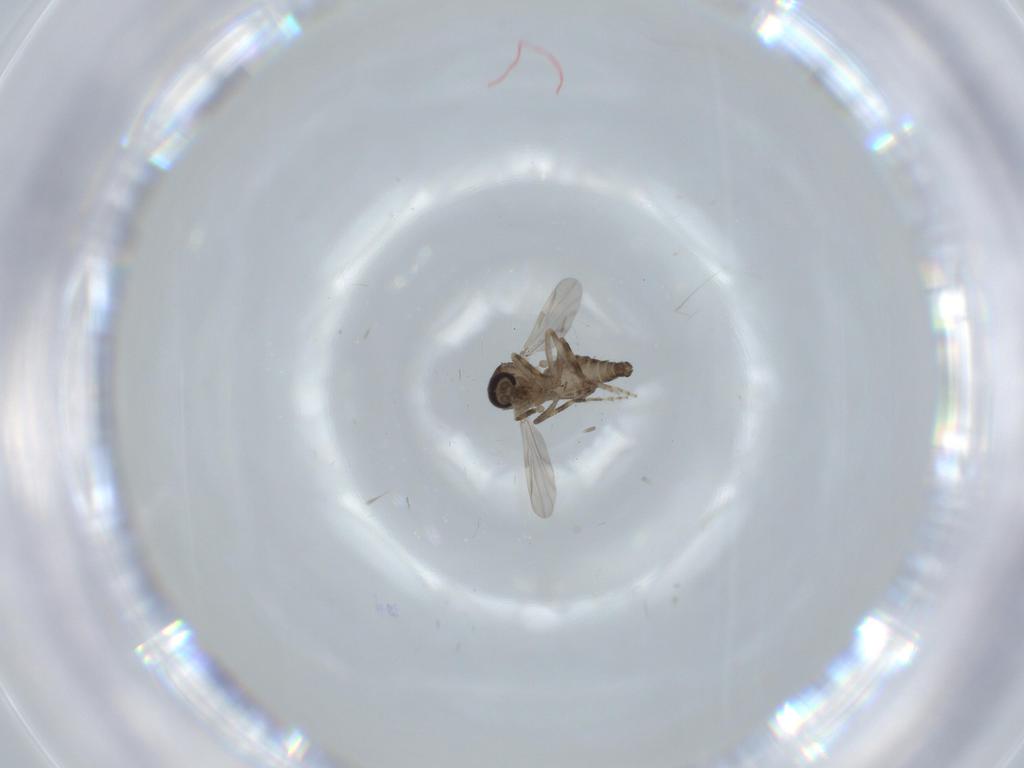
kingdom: Animalia
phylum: Arthropoda
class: Insecta
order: Diptera
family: Ceratopogonidae
